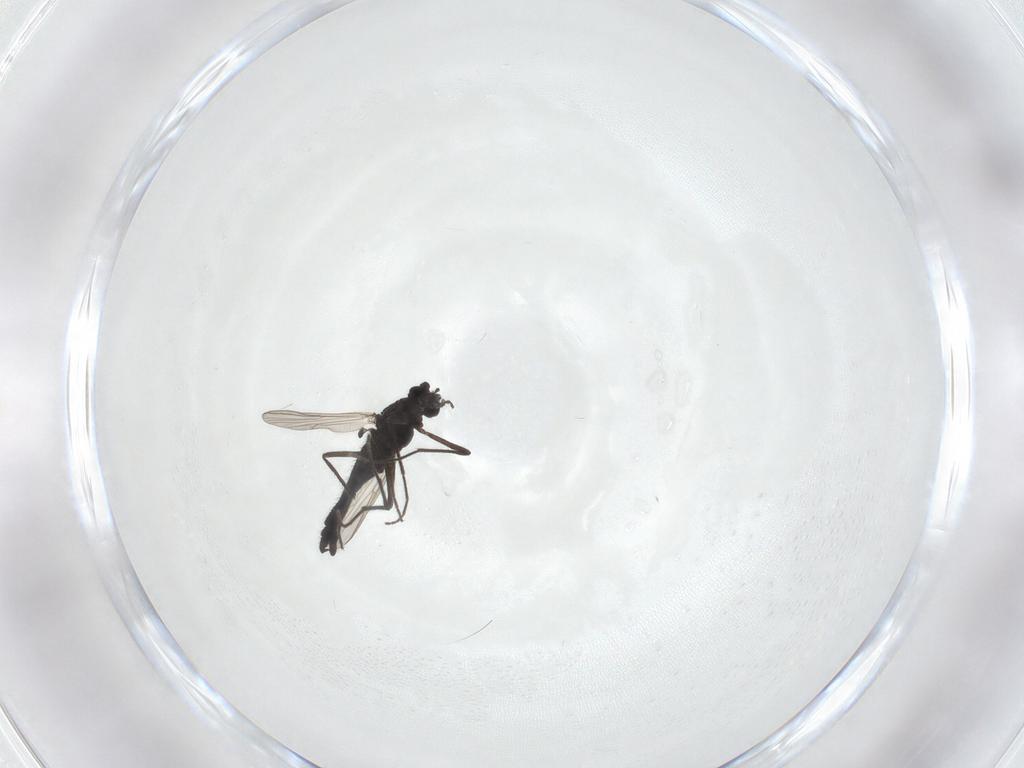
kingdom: Animalia
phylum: Arthropoda
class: Insecta
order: Diptera
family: Chironomidae
